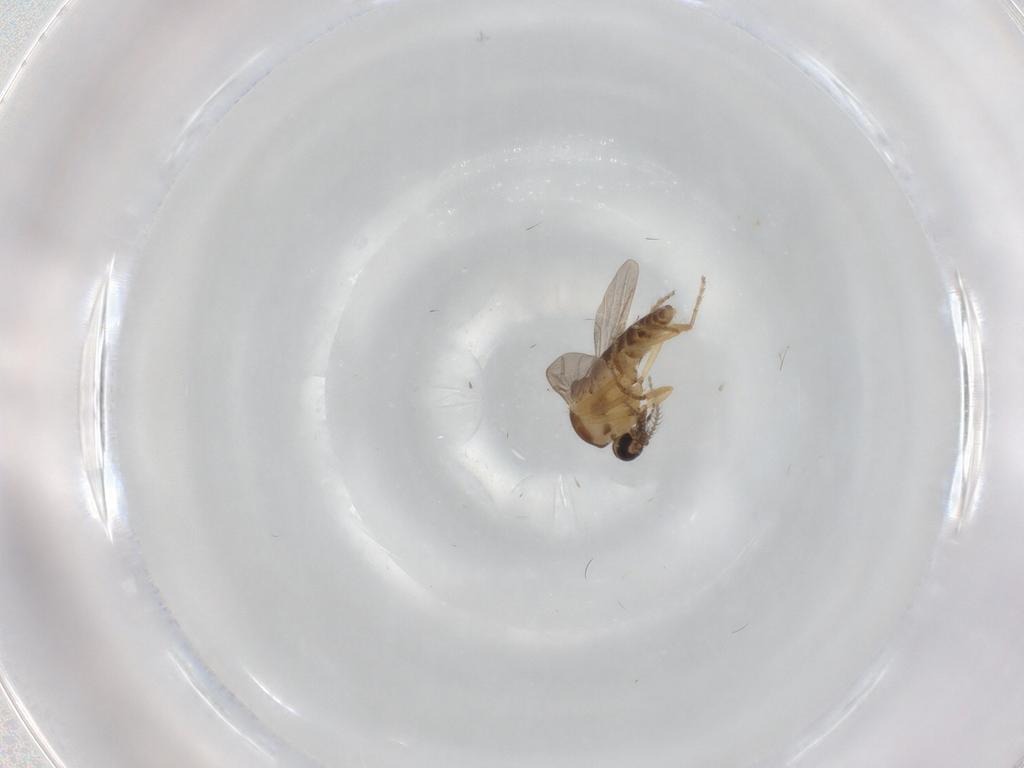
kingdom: Animalia
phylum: Arthropoda
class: Insecta
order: Diptera
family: Ceratopogonidae
